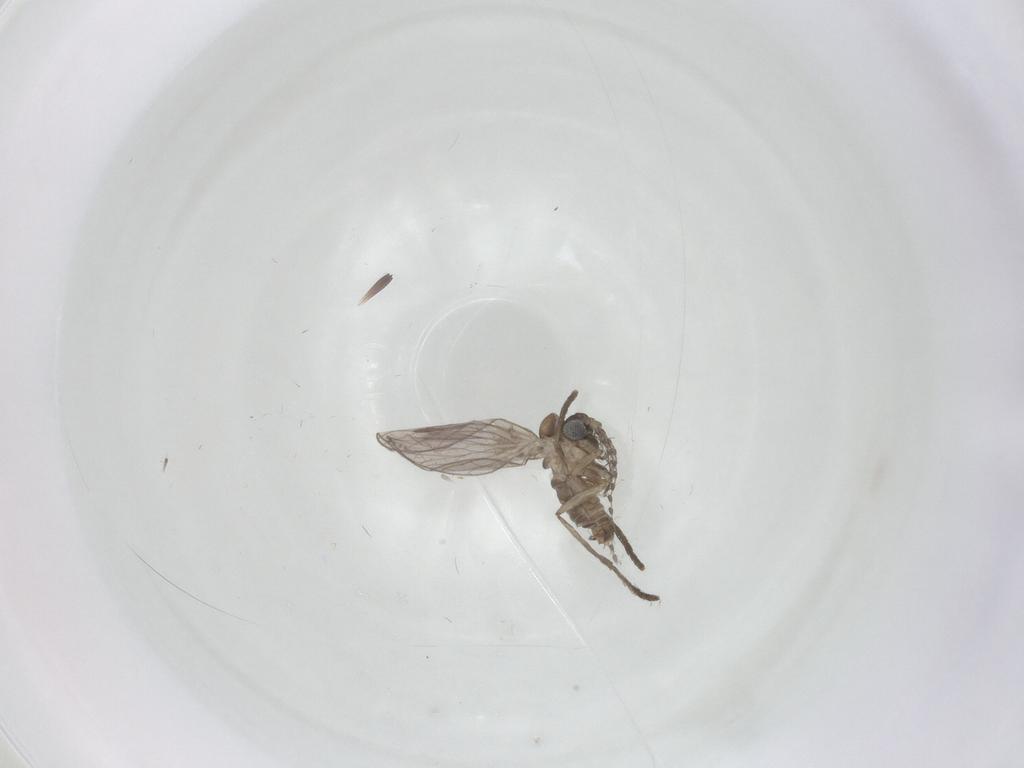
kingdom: Animalia
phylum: Arthropoda
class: Insecta
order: Diptera
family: Psychodidae
